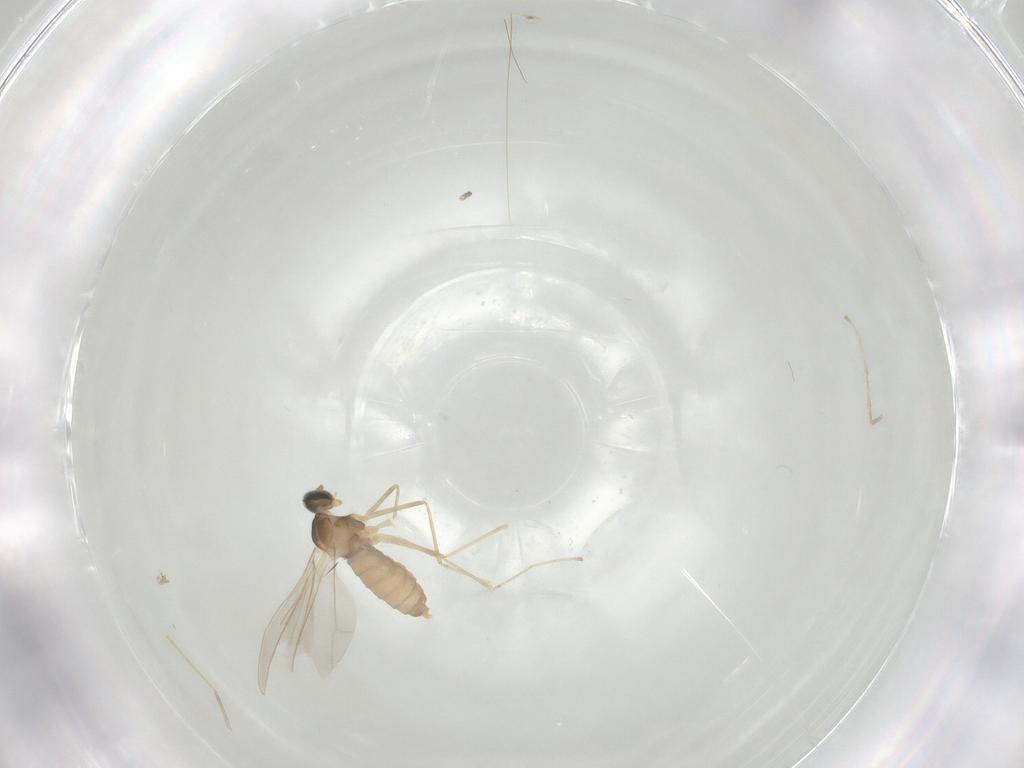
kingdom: Animalia
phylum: Arthropoda
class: Insecta
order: Diptera
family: Cecidomyiidae
